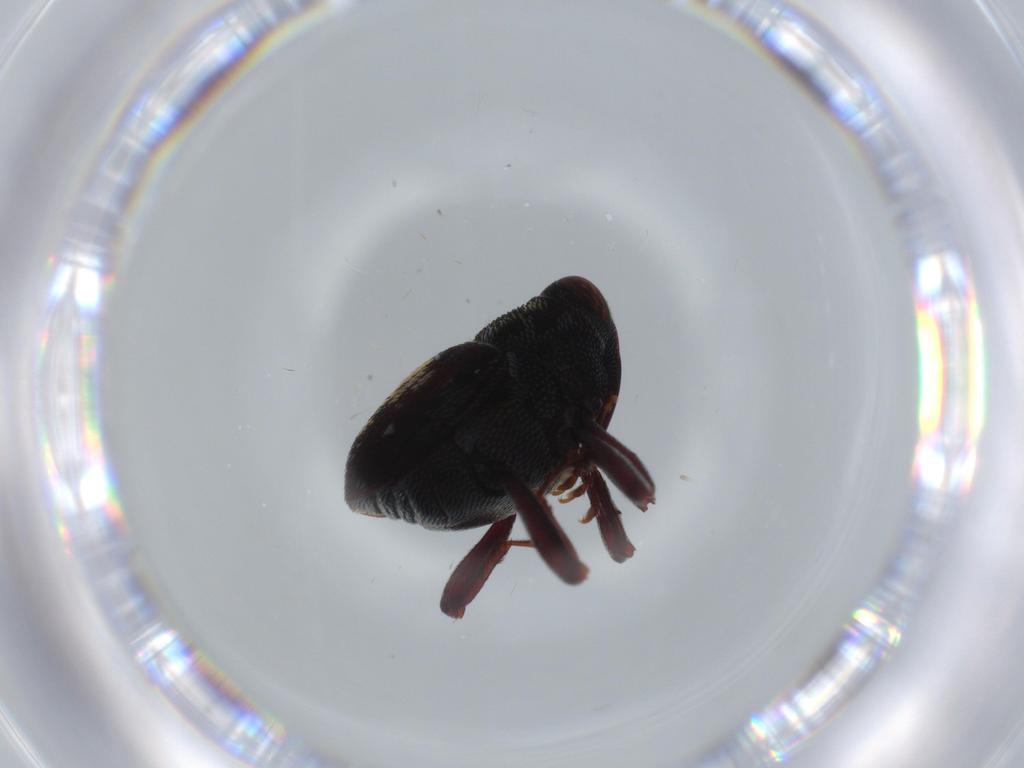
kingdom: Animalia
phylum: Arthropoda
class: Insecta
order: Coleoptera
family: Curculionidae
